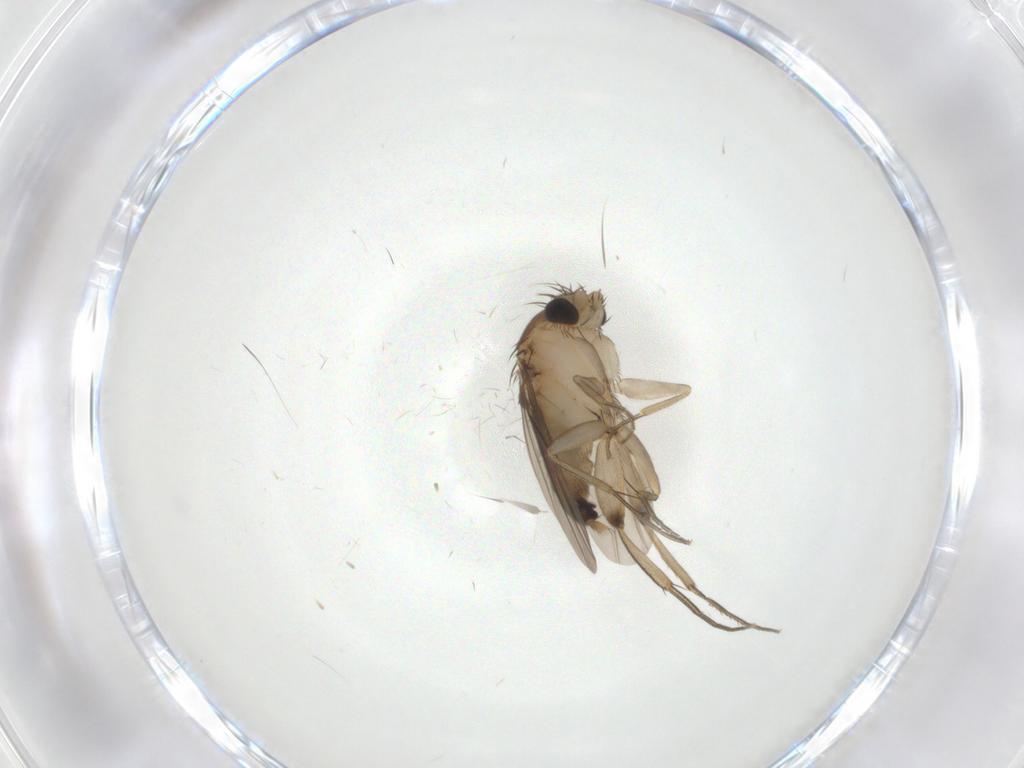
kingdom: Animalia
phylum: Arthropoda
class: Insecta
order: Diptera
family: Phoridae
